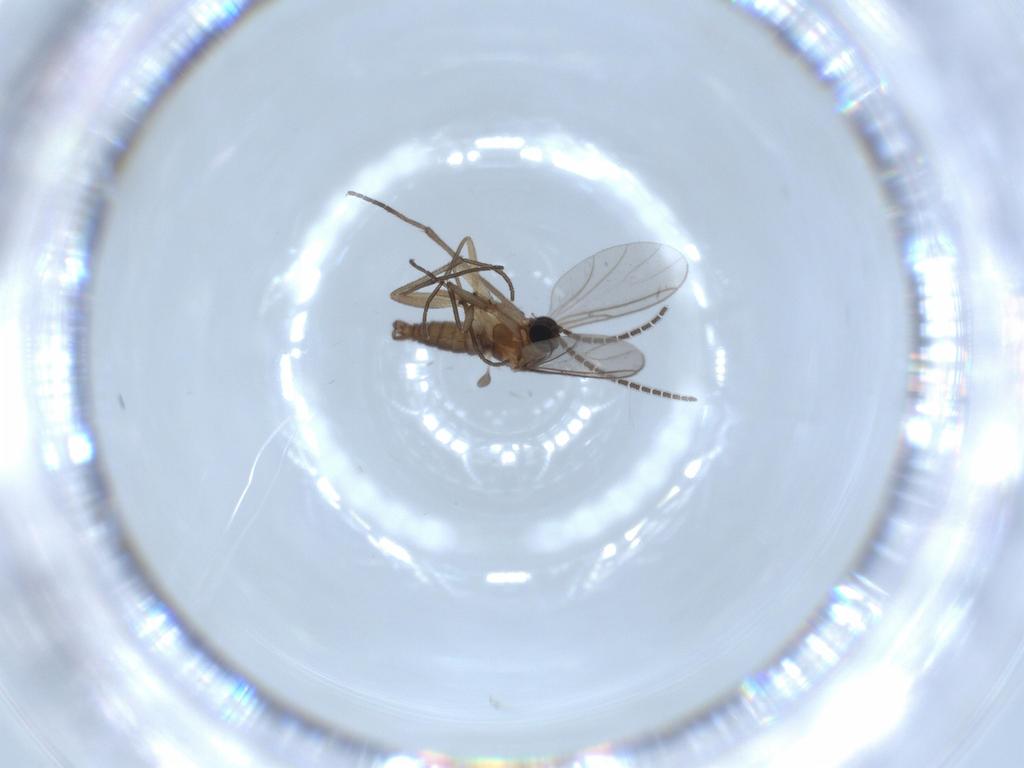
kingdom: Animalia
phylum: Arthropoda
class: Insecta
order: Diptera
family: Sciaridae
